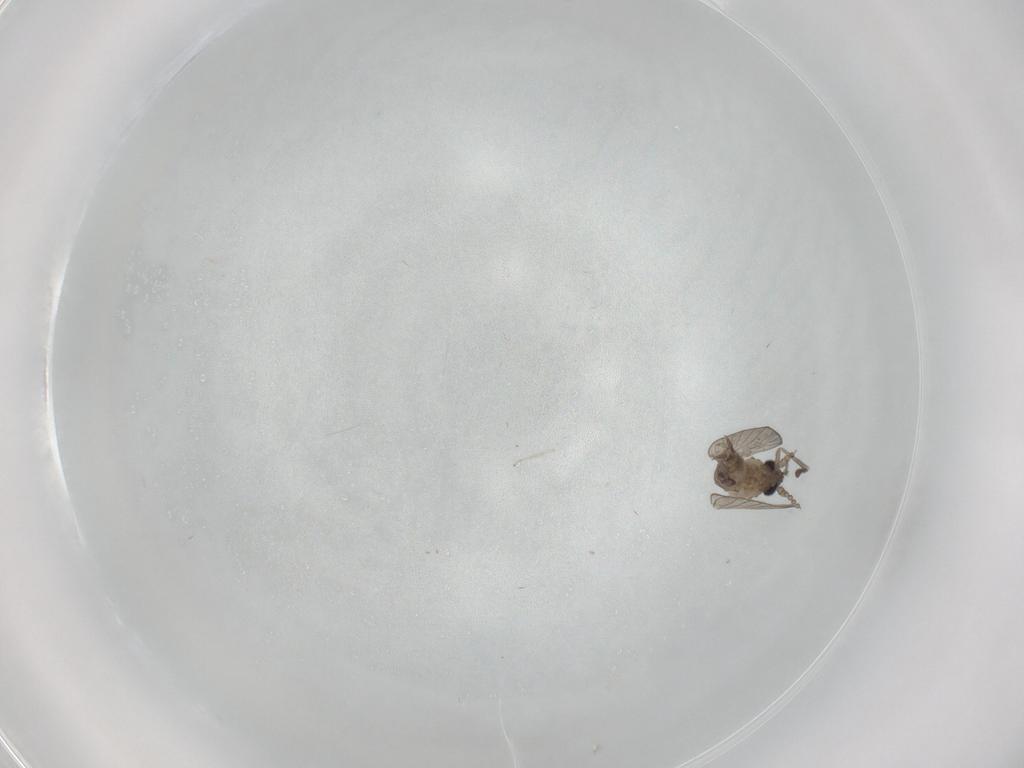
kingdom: Animalia
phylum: Arthropoda
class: Insecta
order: Diptera
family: Psychodidae
